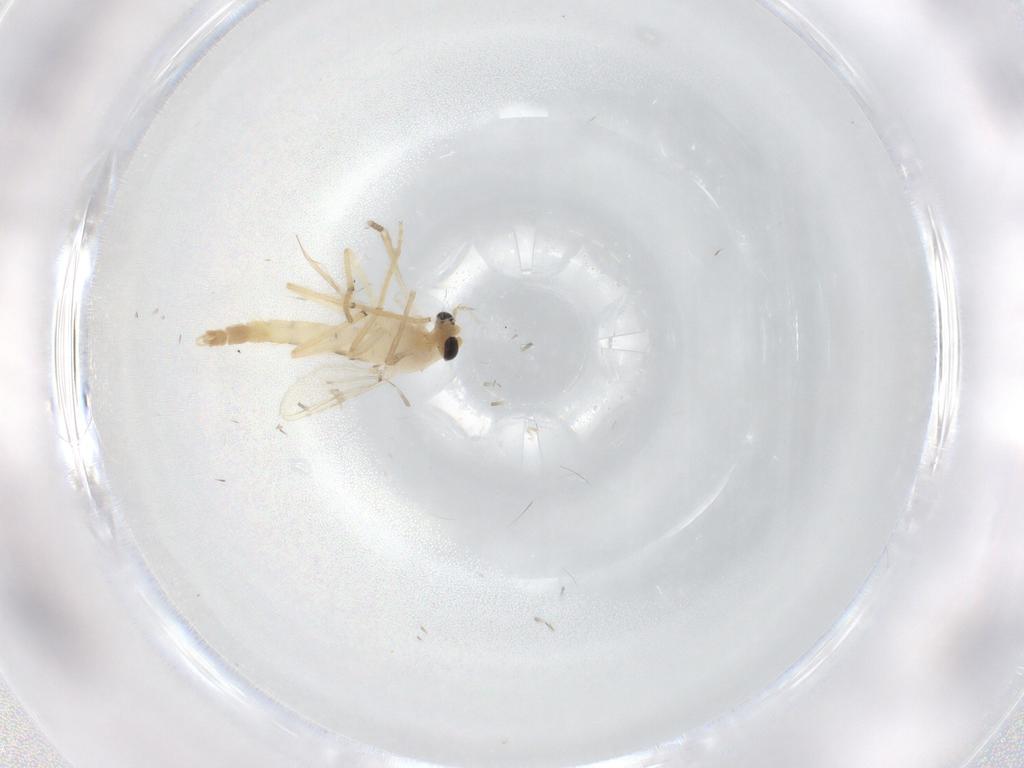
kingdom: Animalia
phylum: Arthropoda
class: Insecta
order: Diptera
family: Chironomidae
